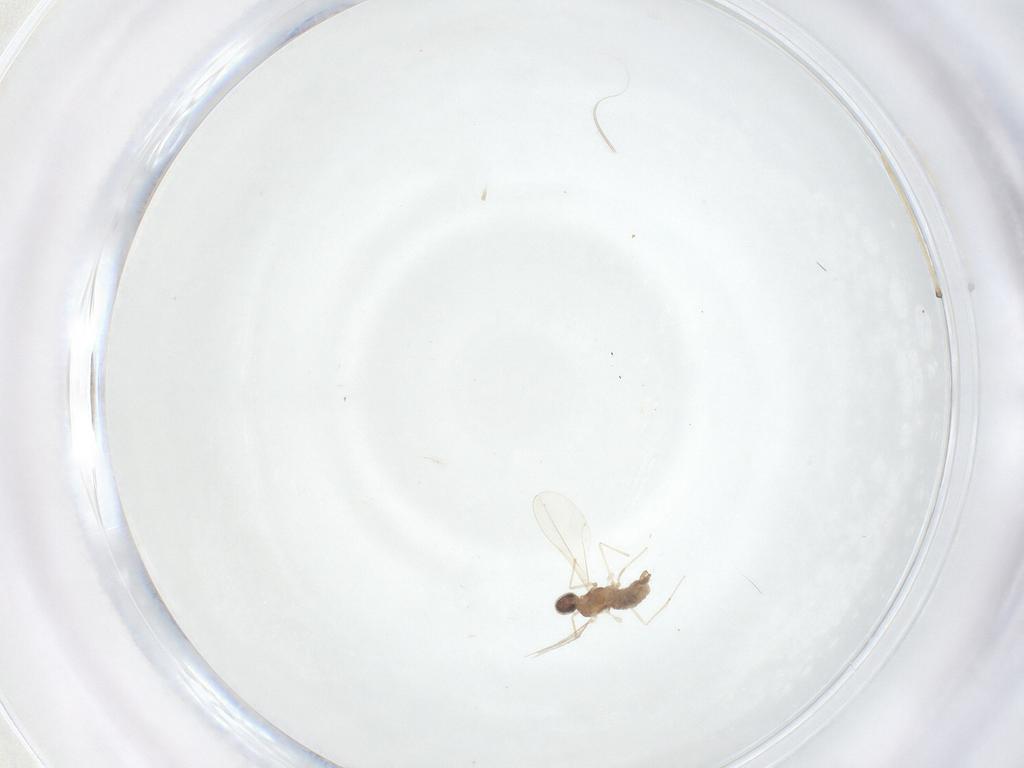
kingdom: Animalia
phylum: Arthropoda
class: Insecta
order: Diptera
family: Chironomidae
